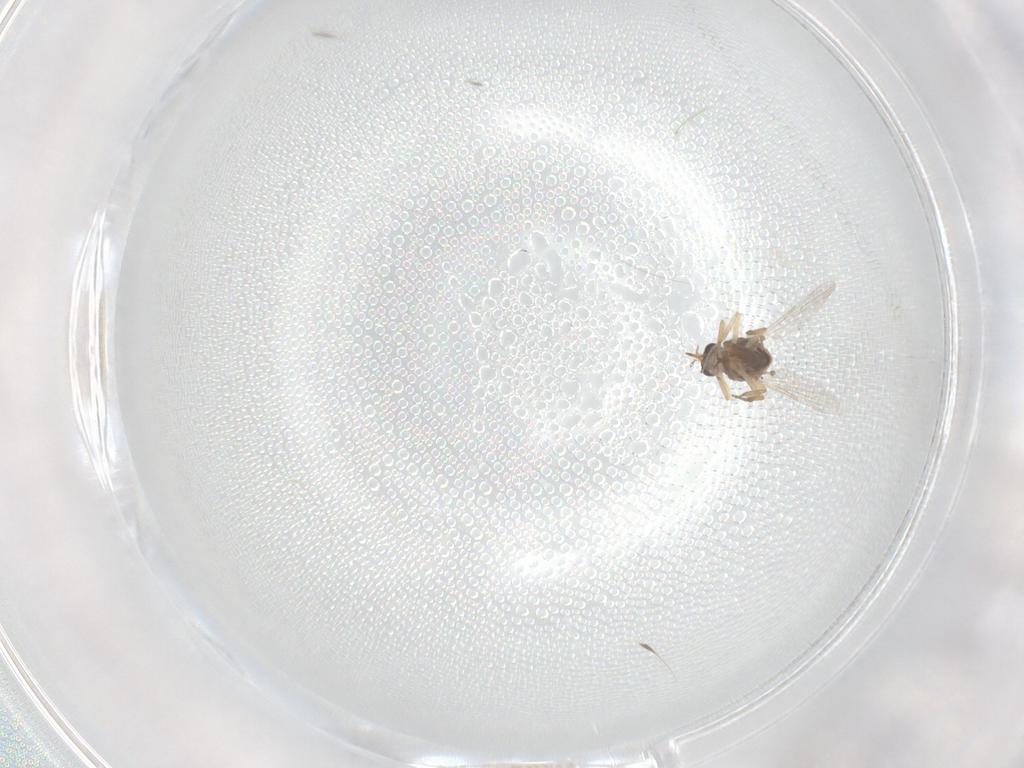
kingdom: Animalia
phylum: Arthropoda
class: Insecta
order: Diptera
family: Ceratopogonidae
